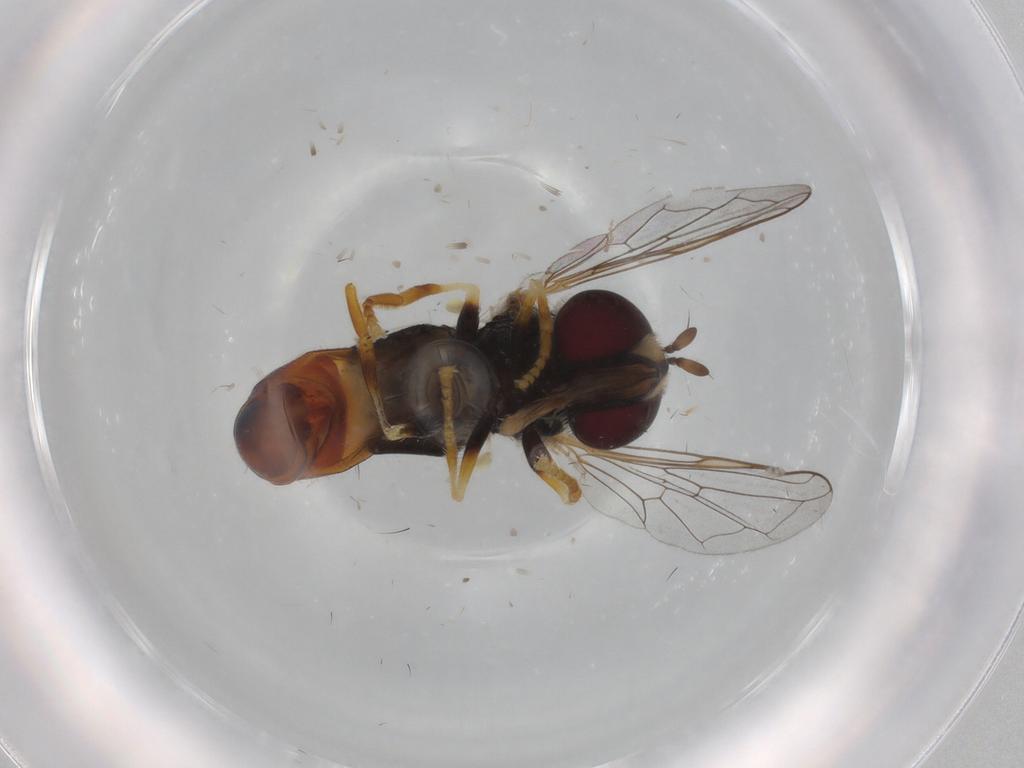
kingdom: Animalia
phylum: Arthropoda
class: Insecta
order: Diptera
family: Syrphidae
